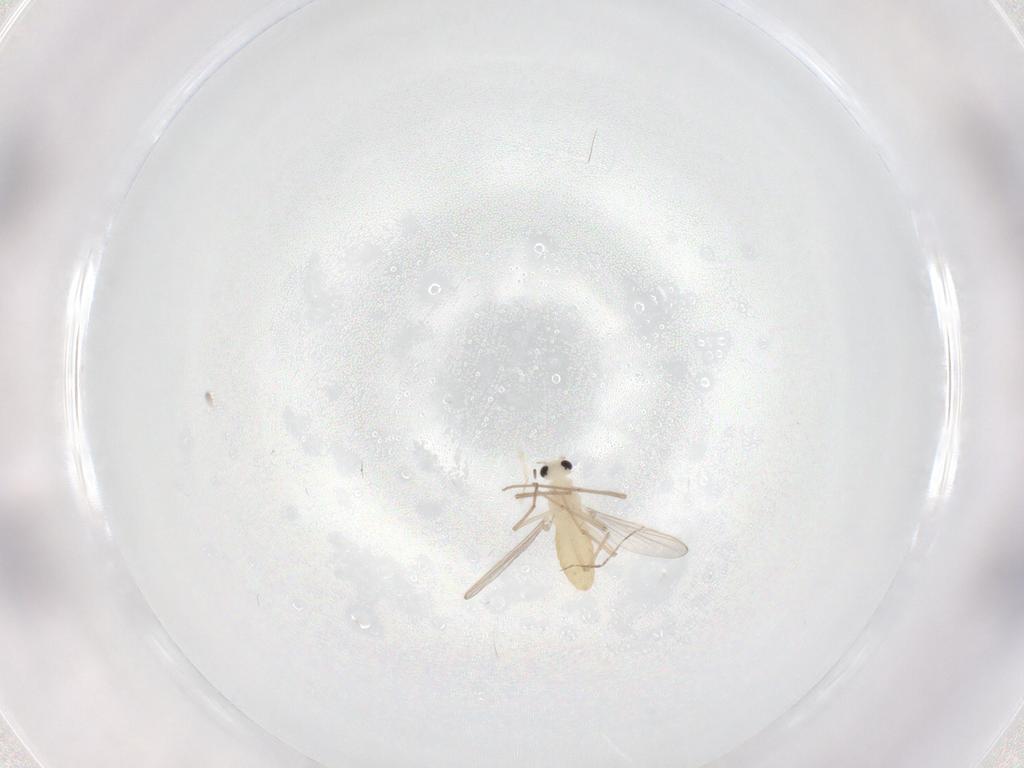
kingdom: Animalia
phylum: Arthropoda
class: Insecta
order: Diptera
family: Chironomidae
